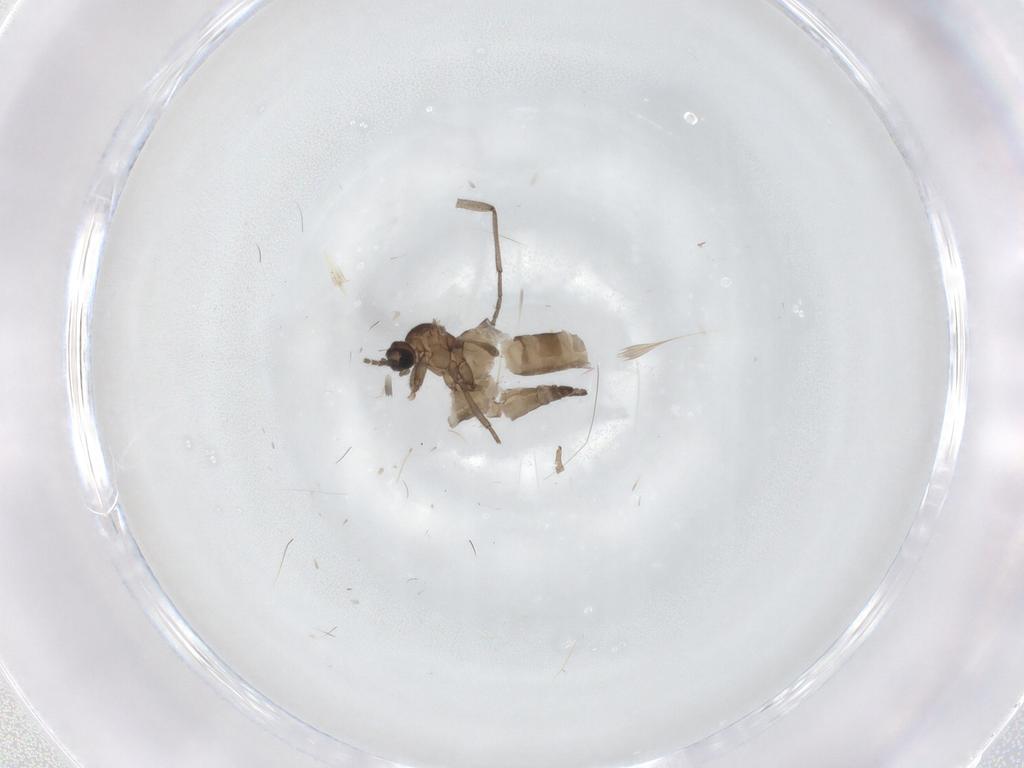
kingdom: Animalia
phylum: Arthropoda
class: Insecta
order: Diptera
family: Sciaridae
